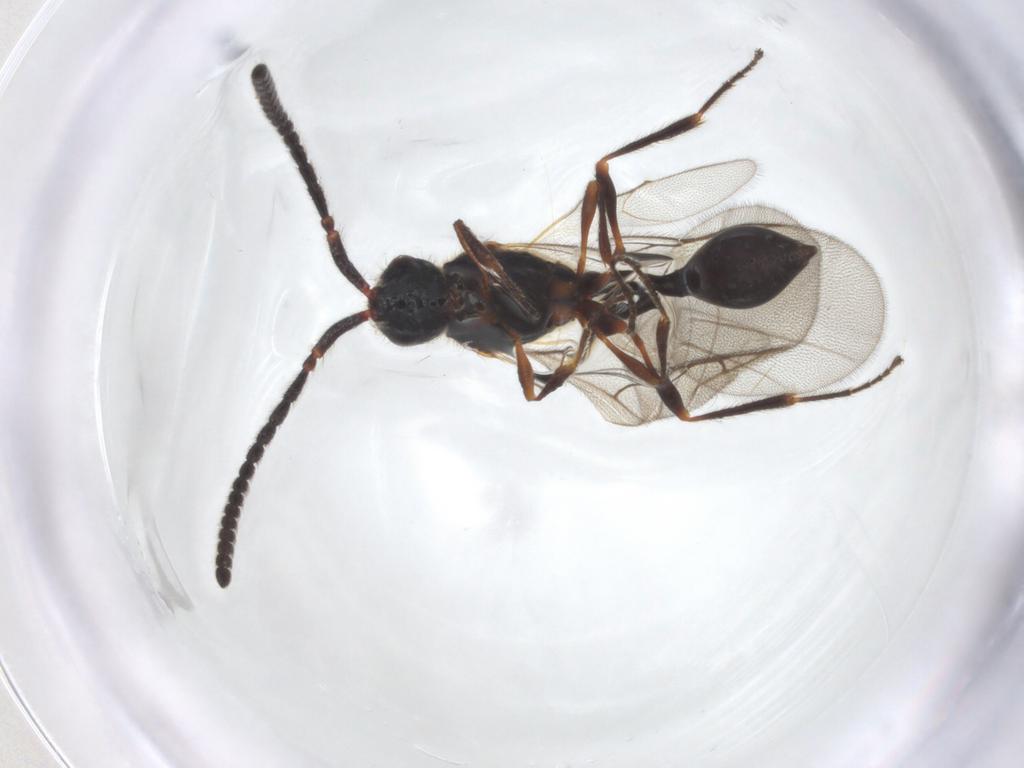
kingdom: Animalia
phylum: Arthropoda
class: Insecta
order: Hymenoptera
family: Diapriidae
